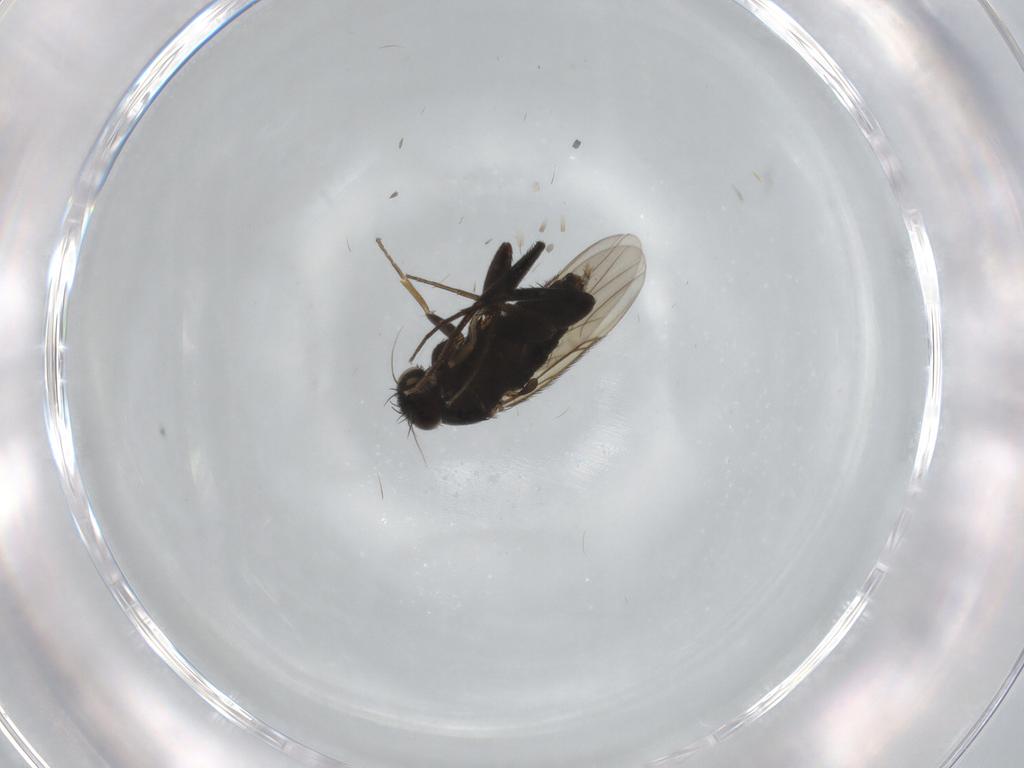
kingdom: Animalia
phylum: Arthropoda
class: Insecta
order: Diptera
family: Phoridae
